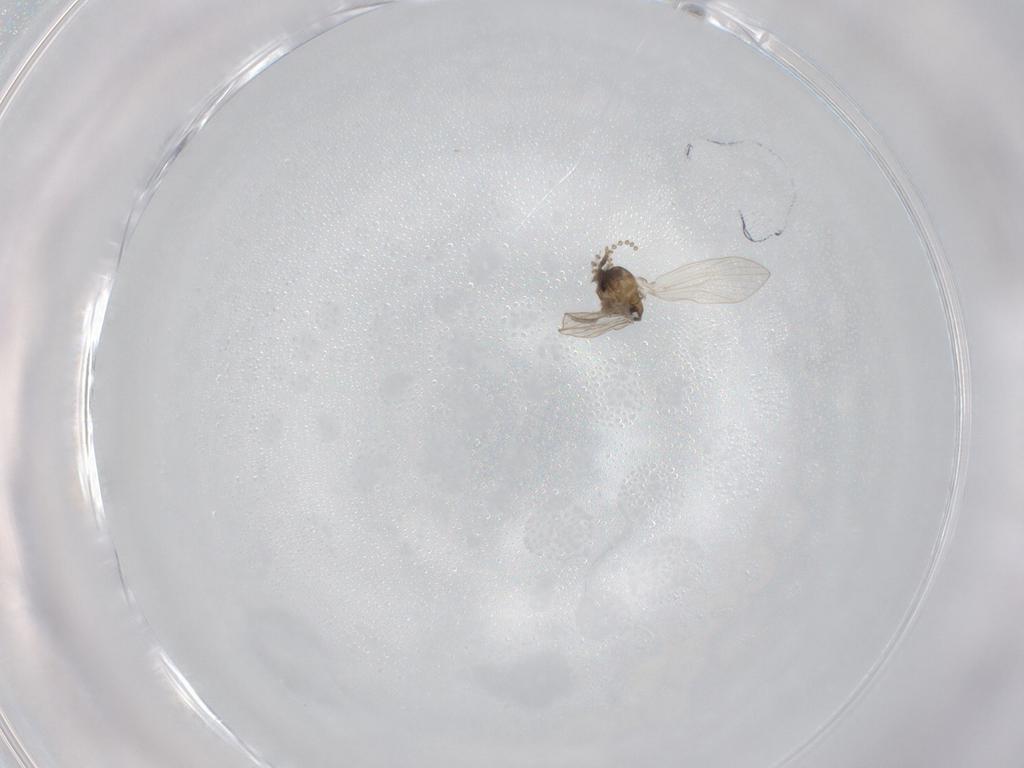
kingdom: Animalia
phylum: Arthropoda
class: Insecta
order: Diptera
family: Psychodidae
